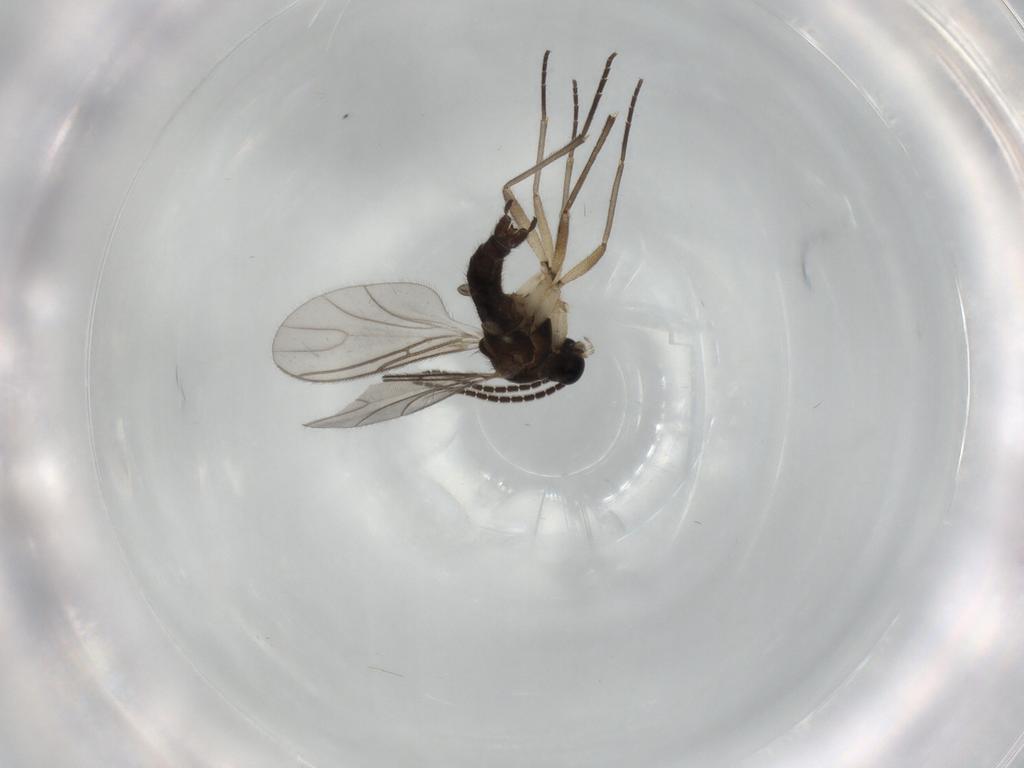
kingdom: Animalia
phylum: Arthropoda
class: Insecta
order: Diptera
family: Sciaridae
